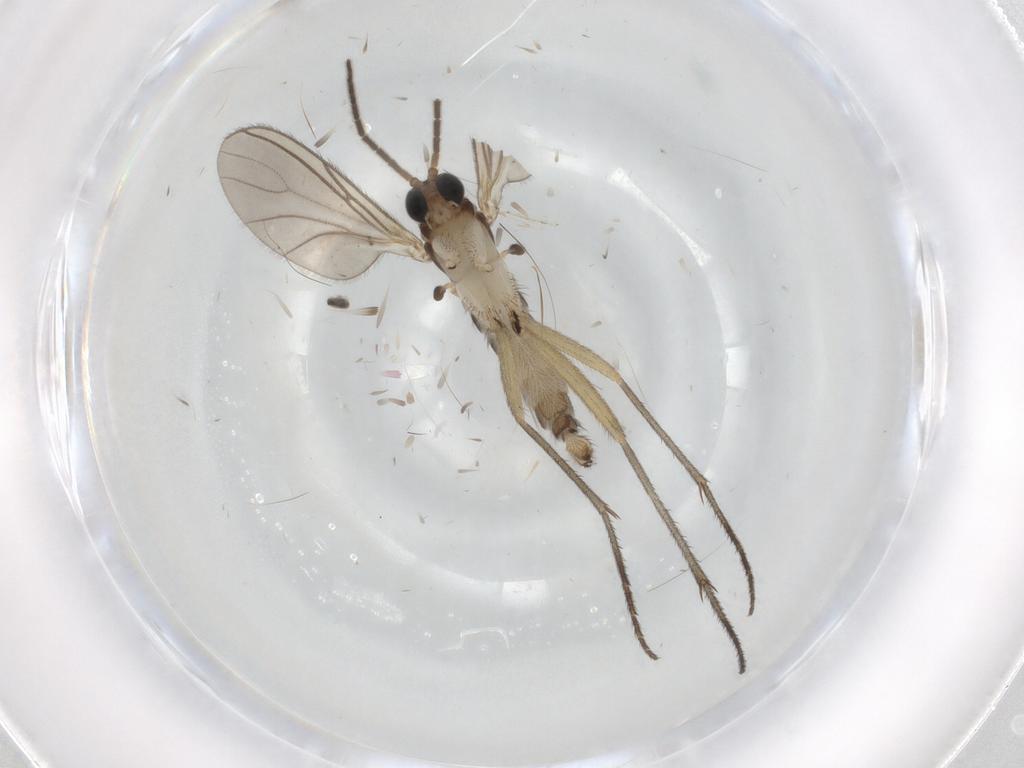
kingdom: Animalia
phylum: Arthropoda
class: Insecta
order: Diptera
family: Sciaridae
